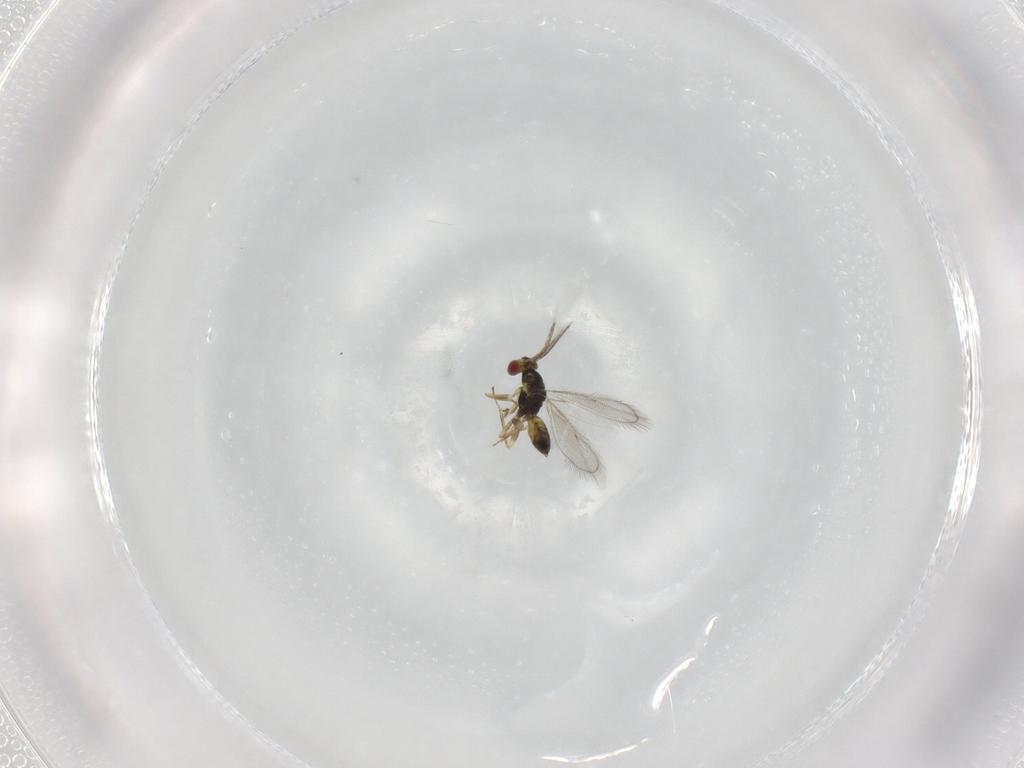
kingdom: Animalia
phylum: Arthropoda
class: Insecta
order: Hymenoptera
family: Eulophidae
